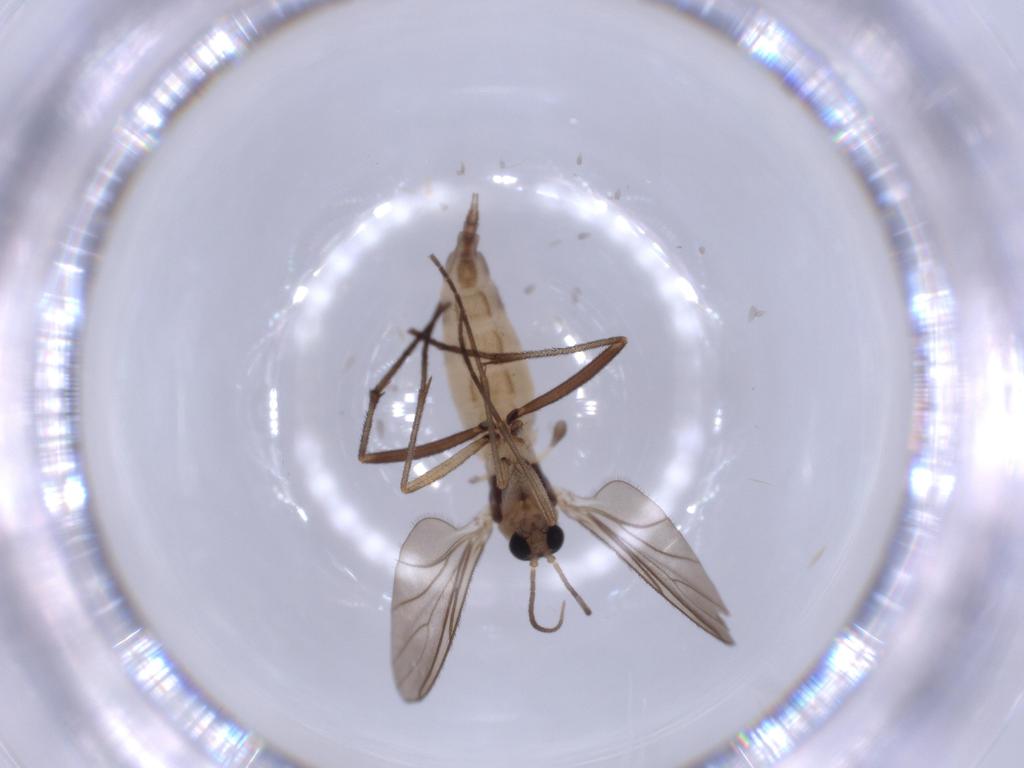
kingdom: Animalia
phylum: Arthropoda
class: Insecta
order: Diptera
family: Sciaridae
